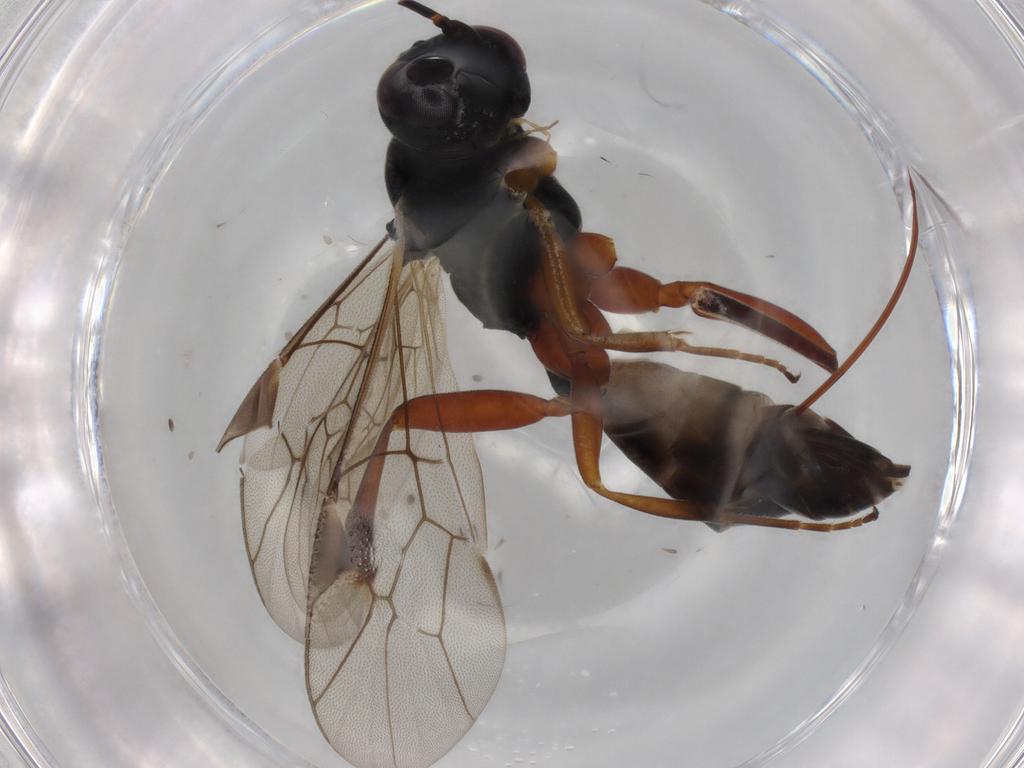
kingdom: Animalia
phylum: Arthropoda
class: Insecta
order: Hymenoptera
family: Ichneumonidae
